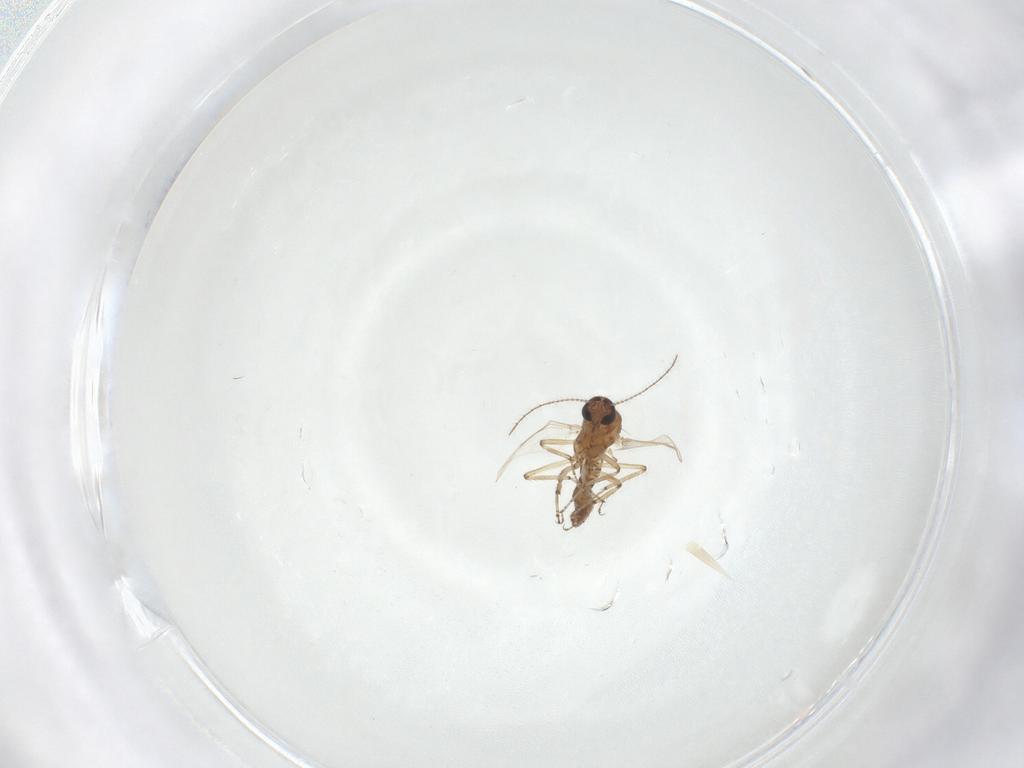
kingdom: Animalia
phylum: Arthropoda
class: Insecta
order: Diptera
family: Ceratopogonidae
